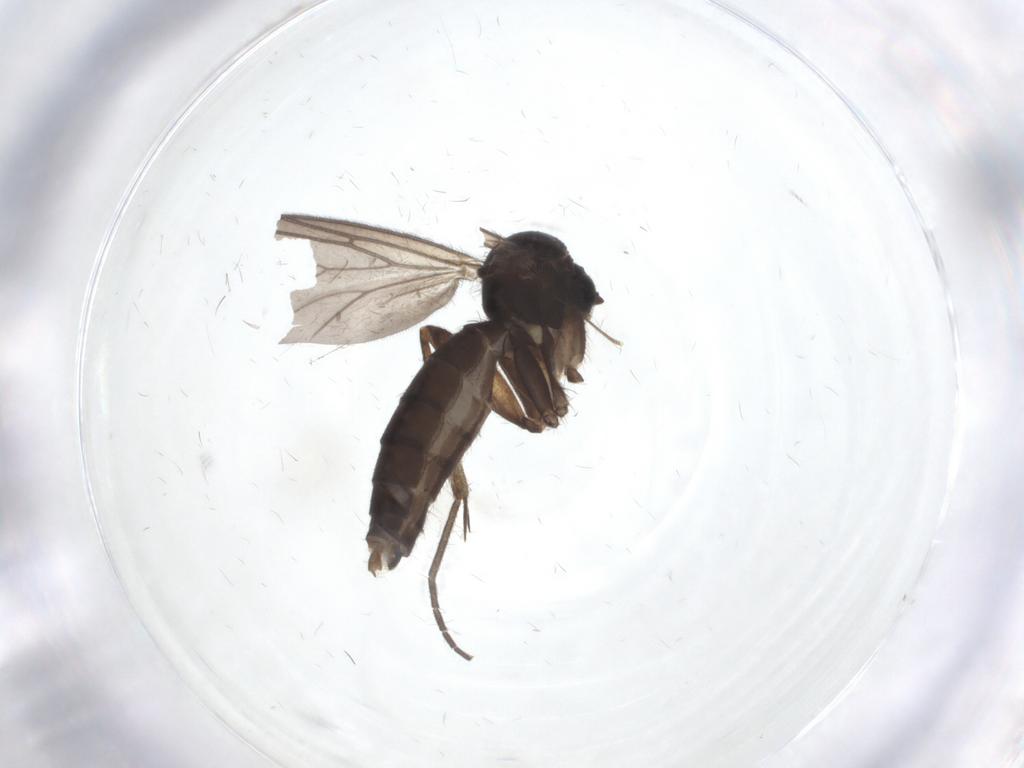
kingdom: Animalia
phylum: Arthropoda
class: Insecta
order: Diptera
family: Mycetophilidae
